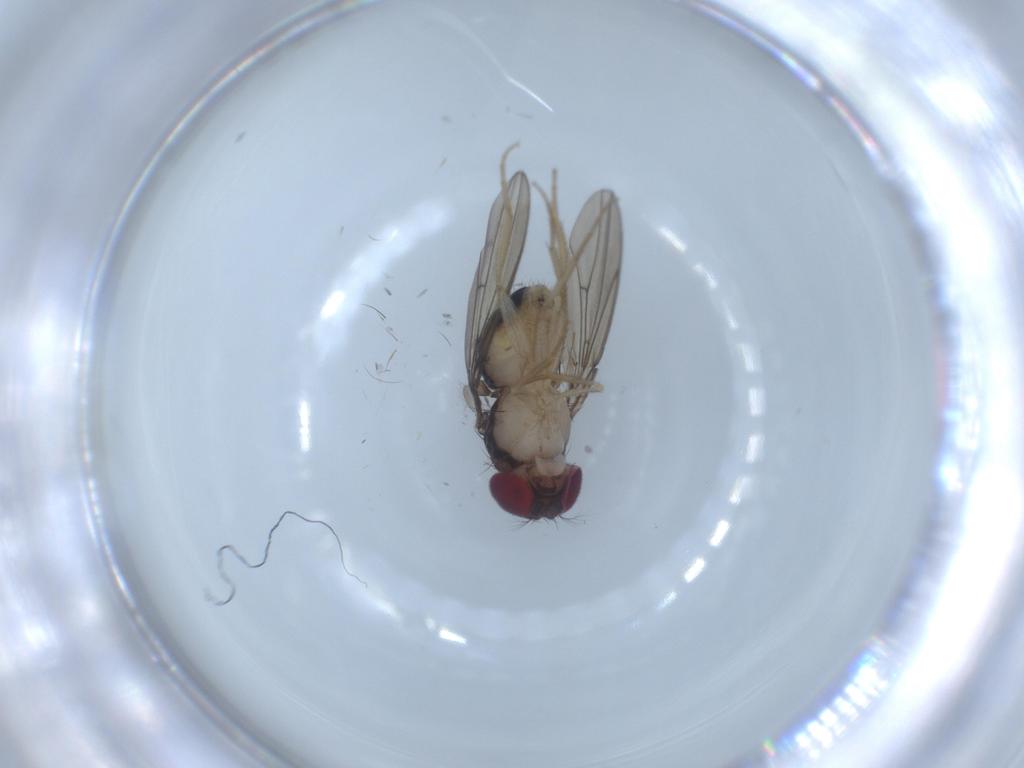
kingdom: Animalia
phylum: Arthropoda
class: Insecta
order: Diptera
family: Drosophilidae
